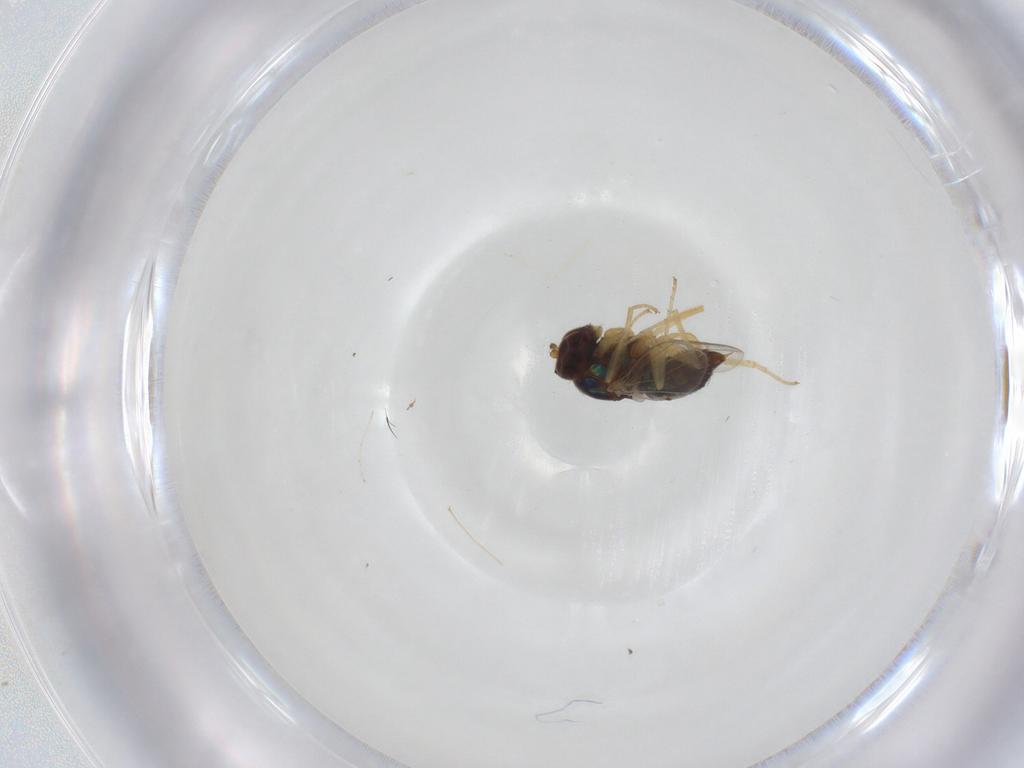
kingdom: Animalia
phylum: Arthropoda
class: Insecta
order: Diptera
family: Dolichopodidae
